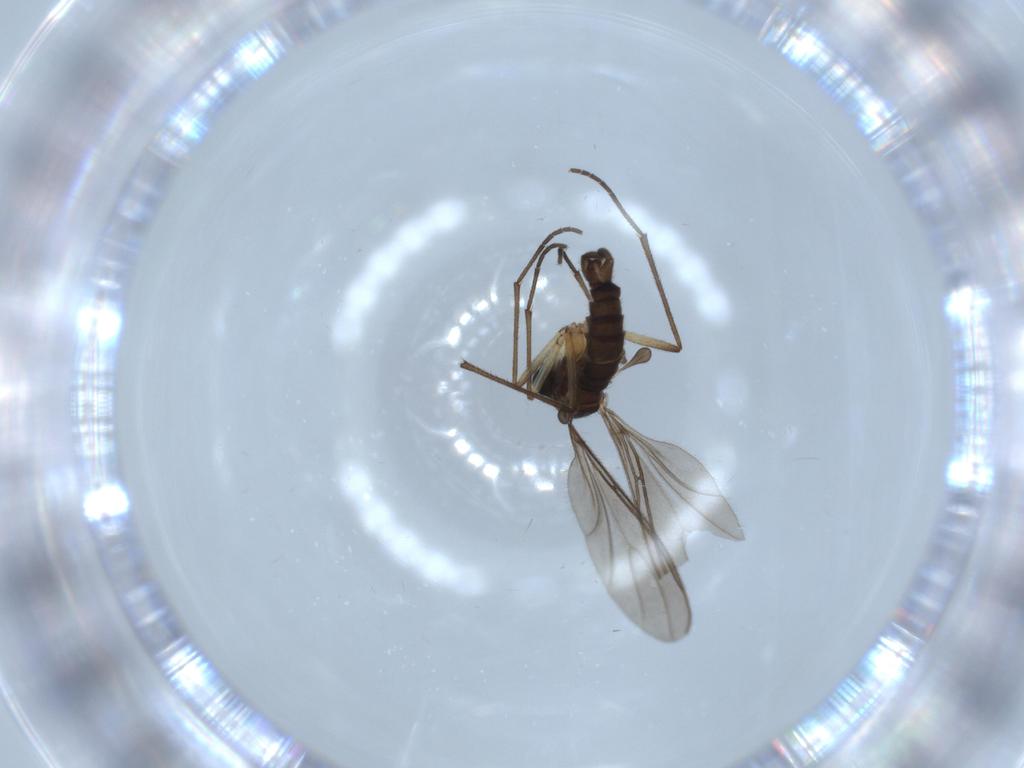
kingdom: Animalia
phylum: Arthropoda
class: Insecta
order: Diptera
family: Sciaridae
